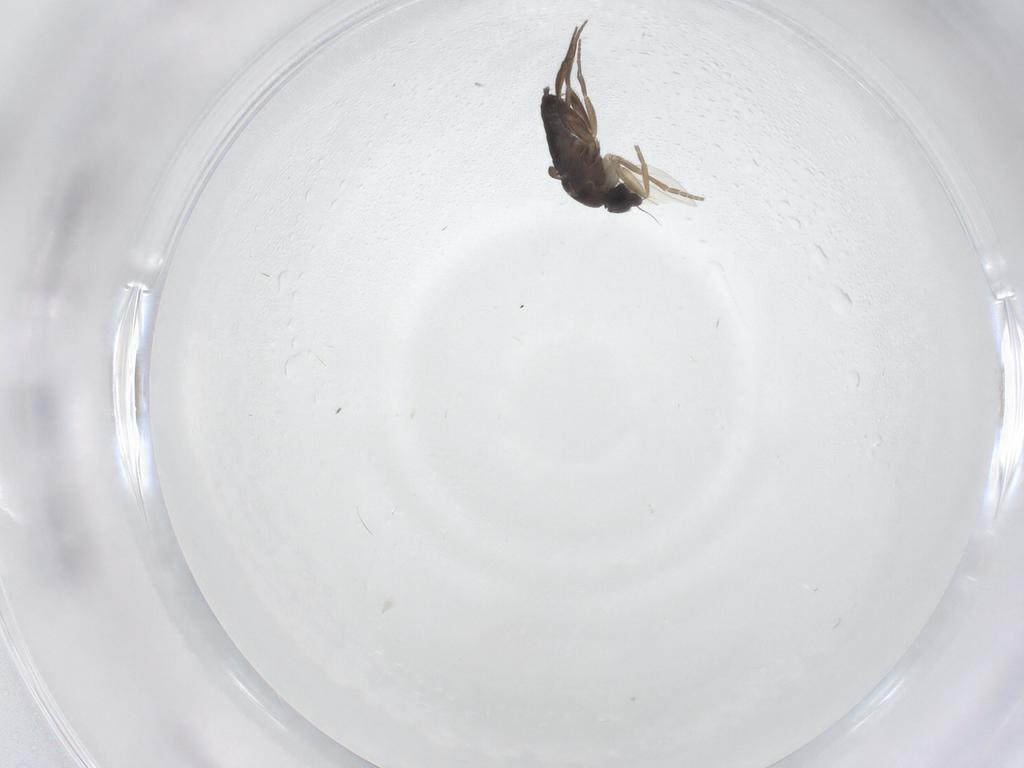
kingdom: Animalia
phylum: Arthropoda
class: Insecta
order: Diptera
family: Phoridae
